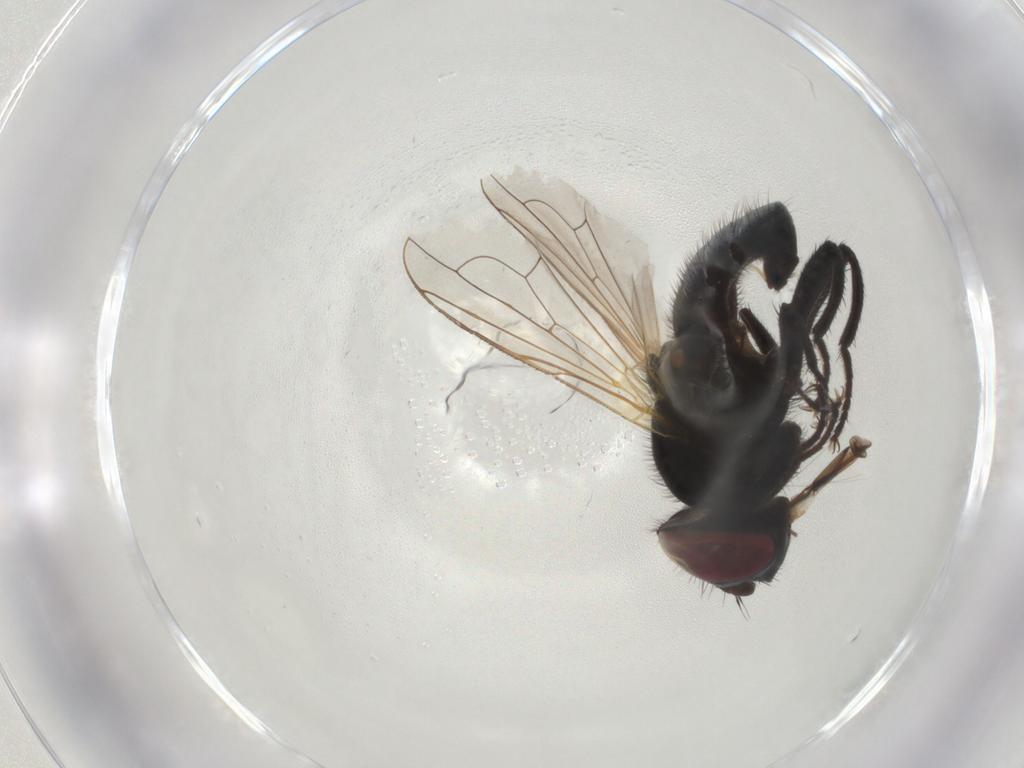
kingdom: Animalia
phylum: Arthropoda
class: Insecta
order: Diptera
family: Tachinidae
